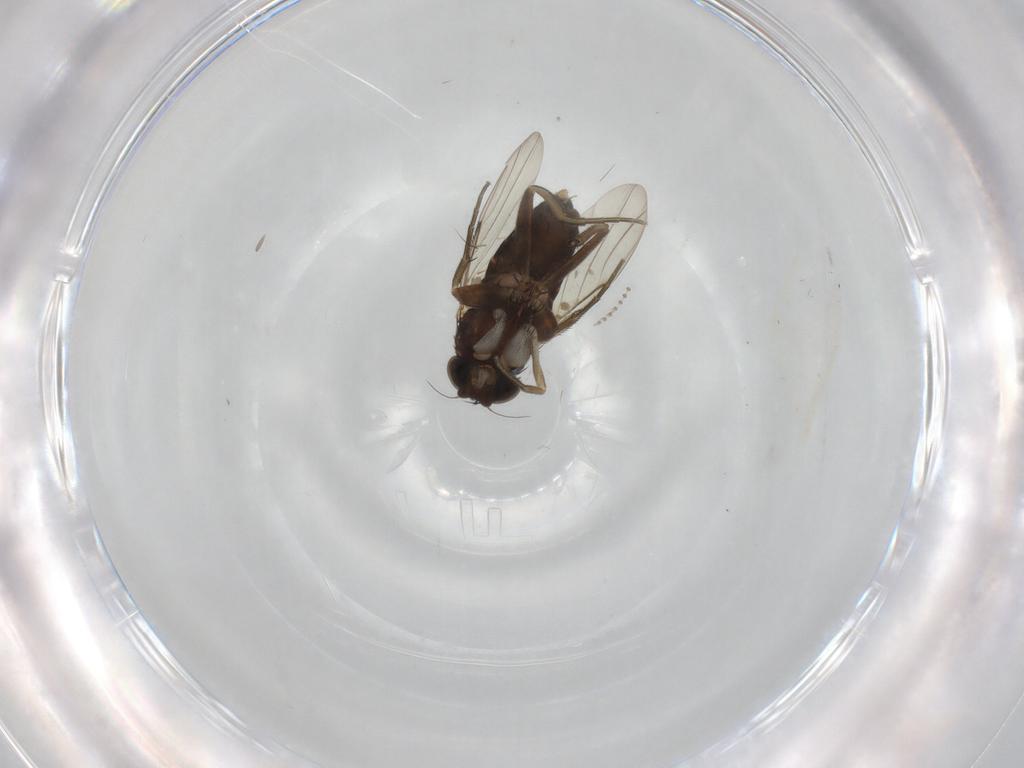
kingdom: Animalia
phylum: Arthropoda
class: Insecta
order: Diptera
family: Phoridae
